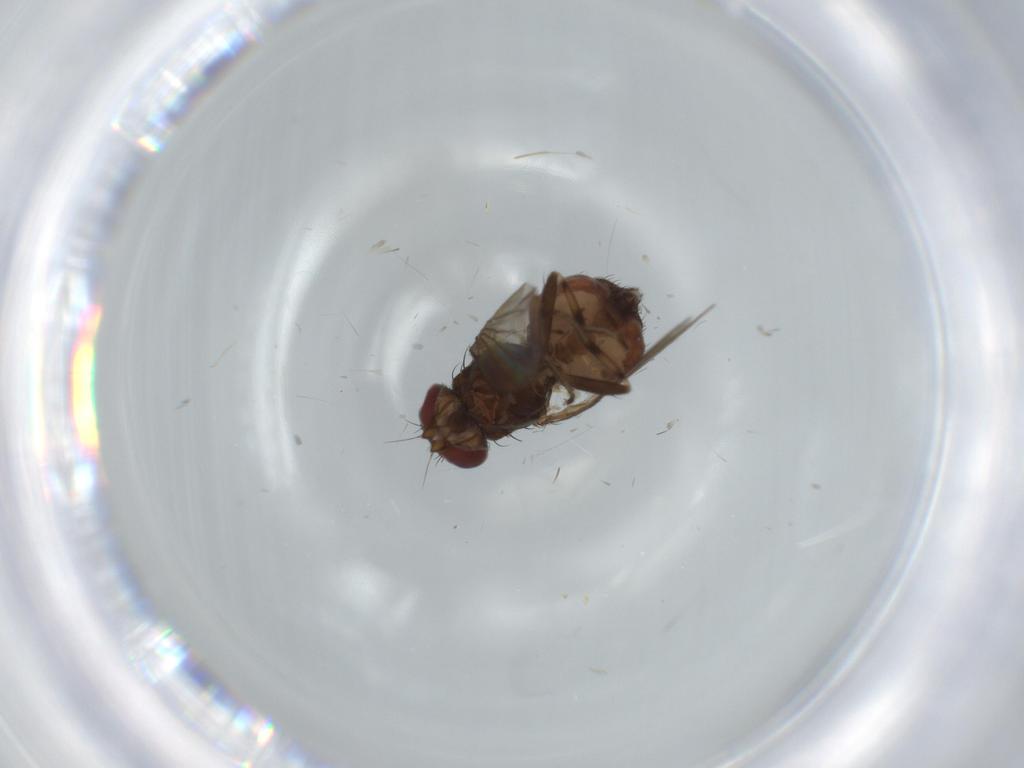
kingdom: Animalia
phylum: Arthropoda
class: Insecta
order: Diptera
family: Heleomyzidae
